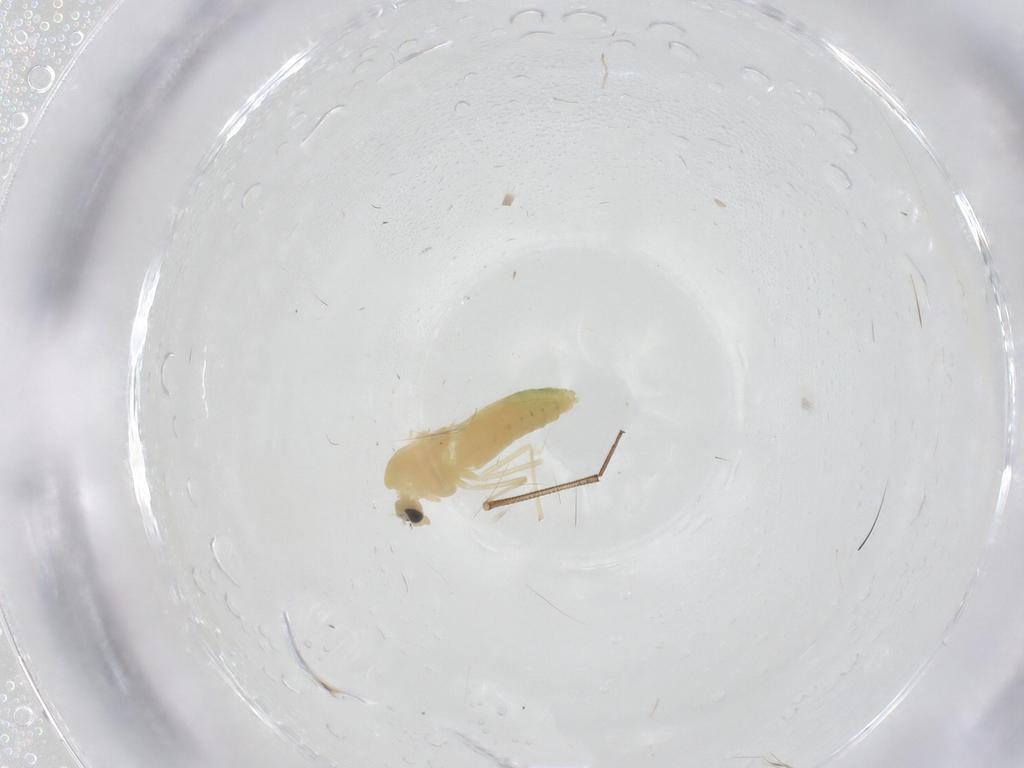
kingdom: Animalia
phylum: Arthropoda
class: Insecta
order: Diptera
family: Chironomidae
